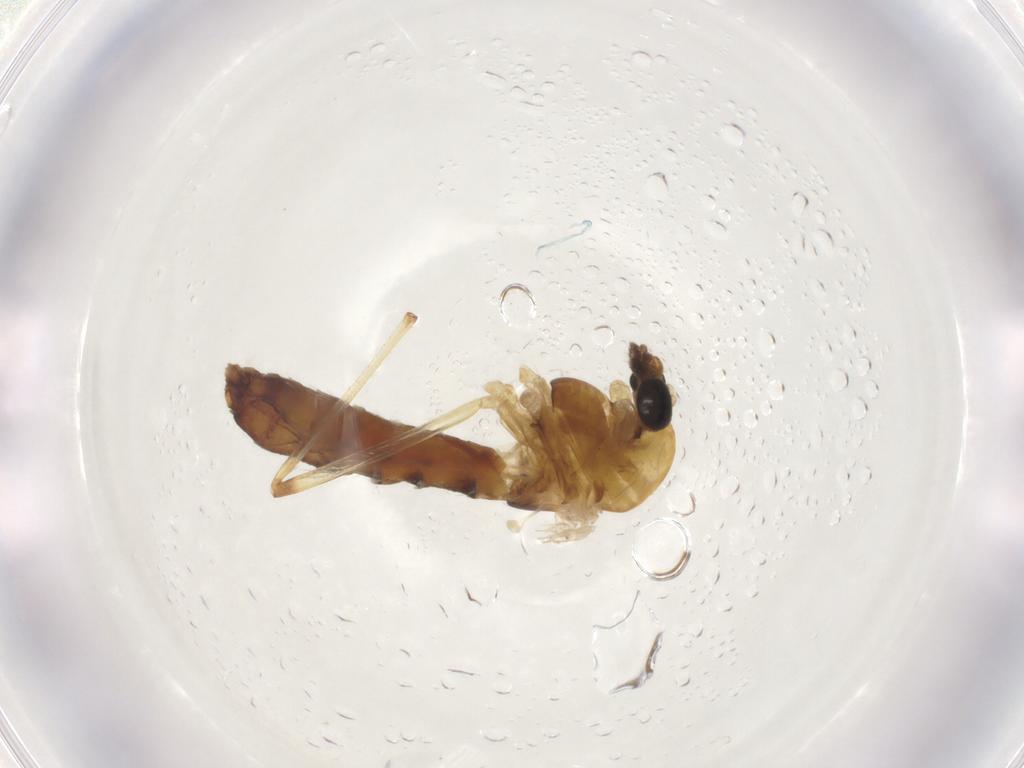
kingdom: Animalia
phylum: Arthropoda
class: Insecta
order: Diptera
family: Chironomidae
